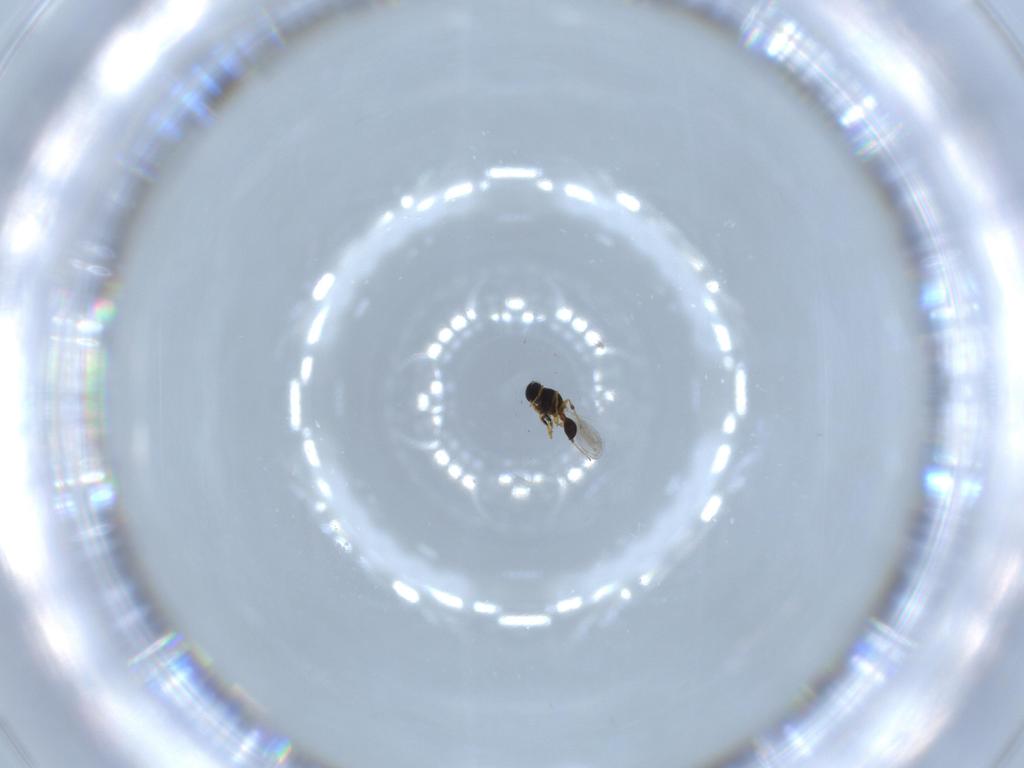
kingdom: Animalia
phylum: Arthropoda
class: Insecta
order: Hymenoptera
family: Platygastridae
